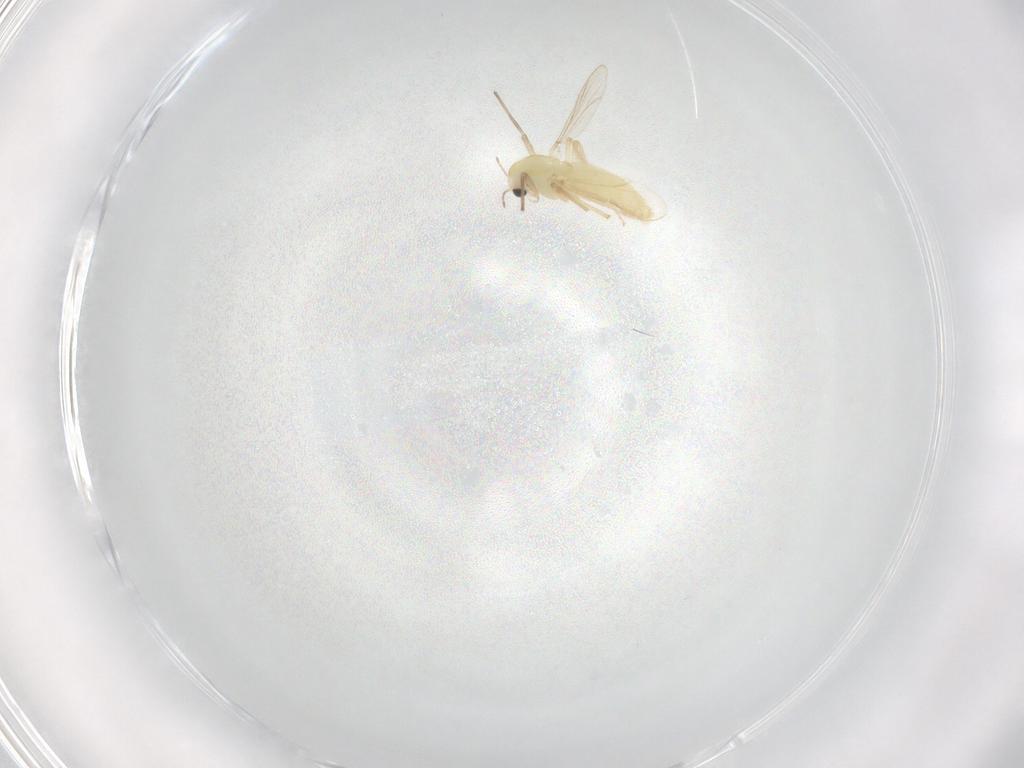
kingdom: Animalia
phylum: Arthropoda
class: Insecta
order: Diptera
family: Chironomidae
